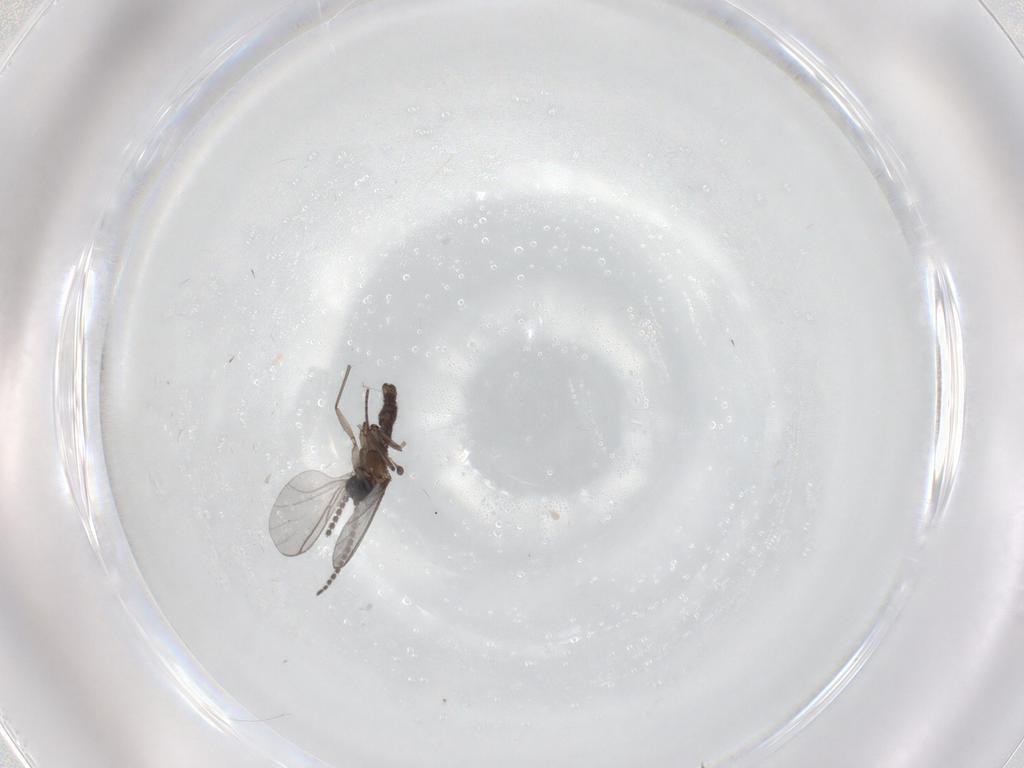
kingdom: Animalia
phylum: Arthropoda
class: Insecta
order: Diptera
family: Sciaridae
